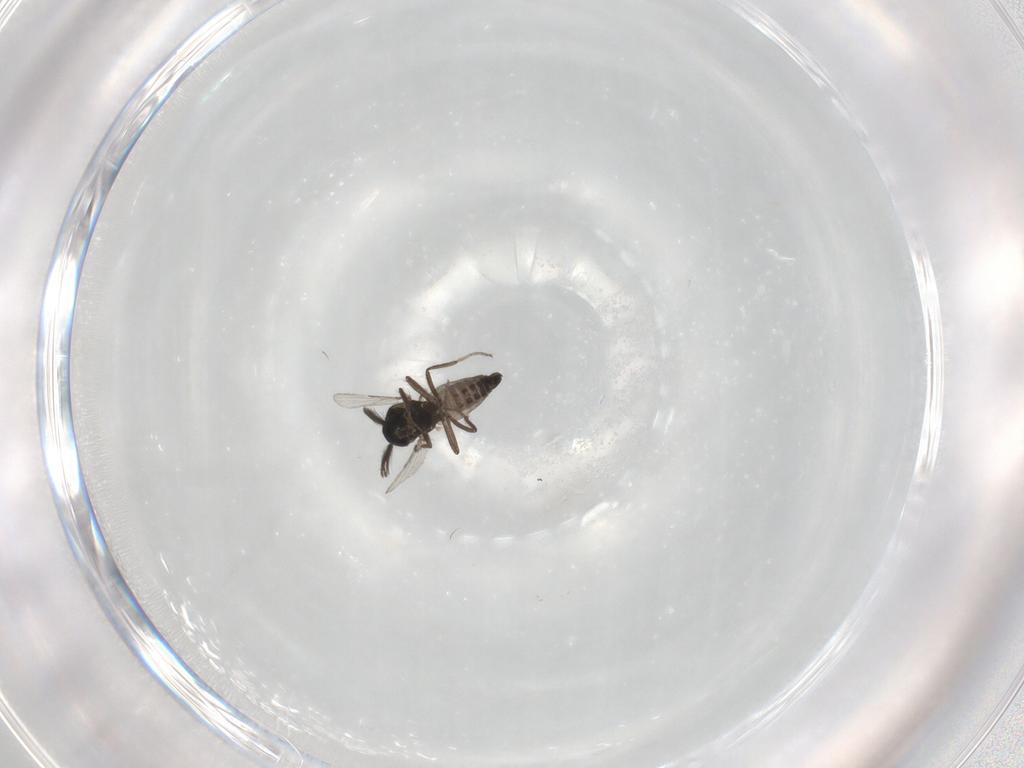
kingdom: Animalia
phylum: Arthropoda
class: Insecta
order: Diptera
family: Ceratopogonidae
